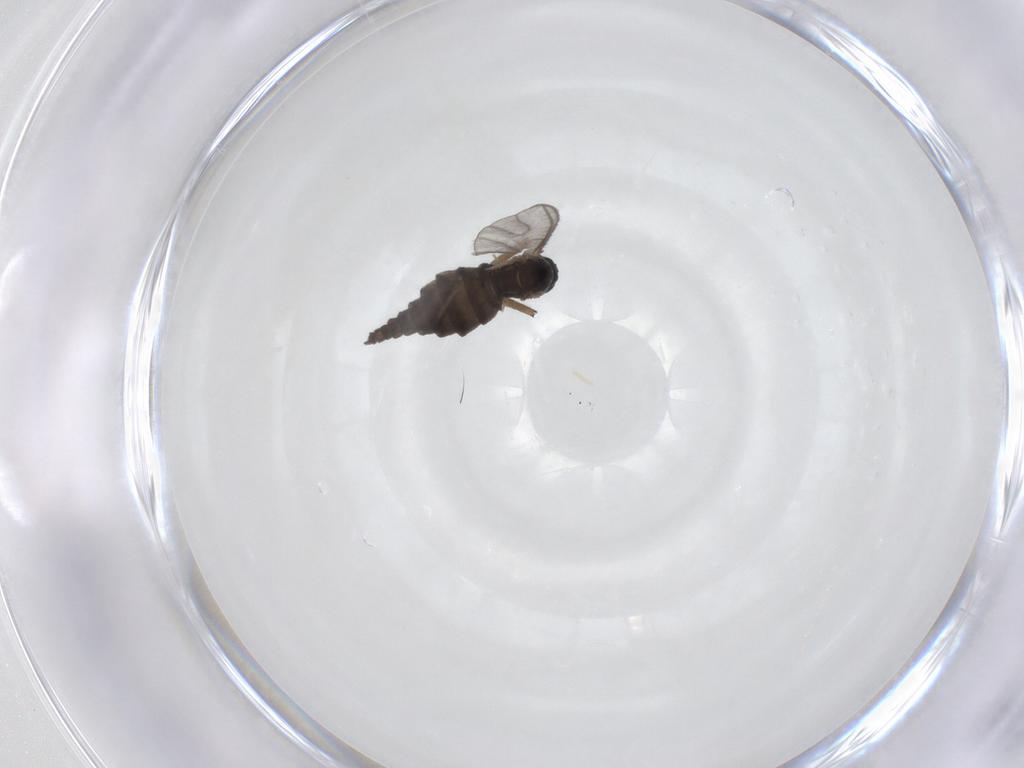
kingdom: Animalia
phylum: Arthropoda
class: Insecta
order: Diptera
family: Sciaridae
